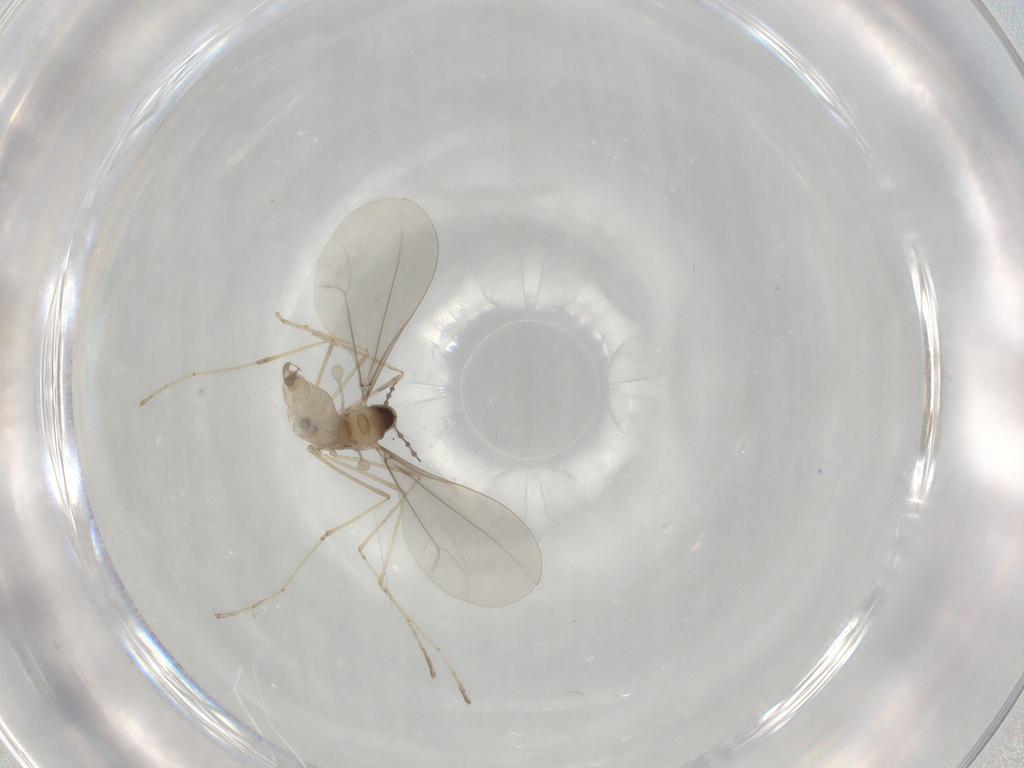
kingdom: Animalia
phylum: Arthropoda
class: Insecta
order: Diptera
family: Cecidomyiidae
